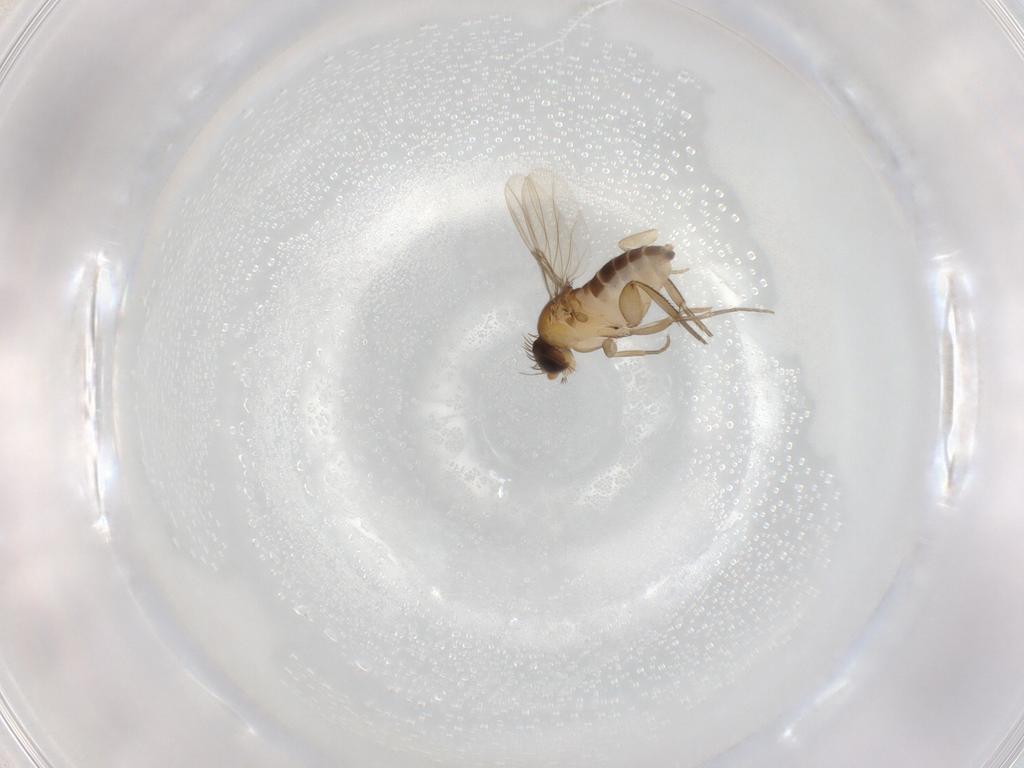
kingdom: Animalia
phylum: Arthropoda
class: Insecta
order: Diptera
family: Phoridae
